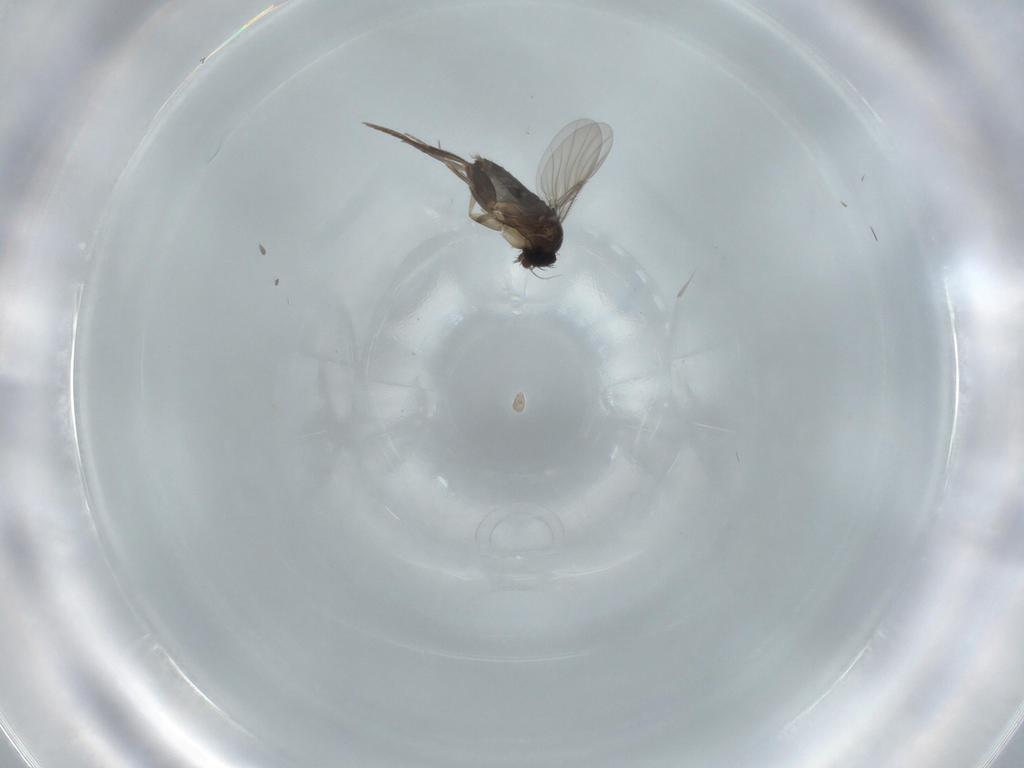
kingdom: Animalia
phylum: Arthropoda
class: Insecta
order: Diptera
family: Phoridae
